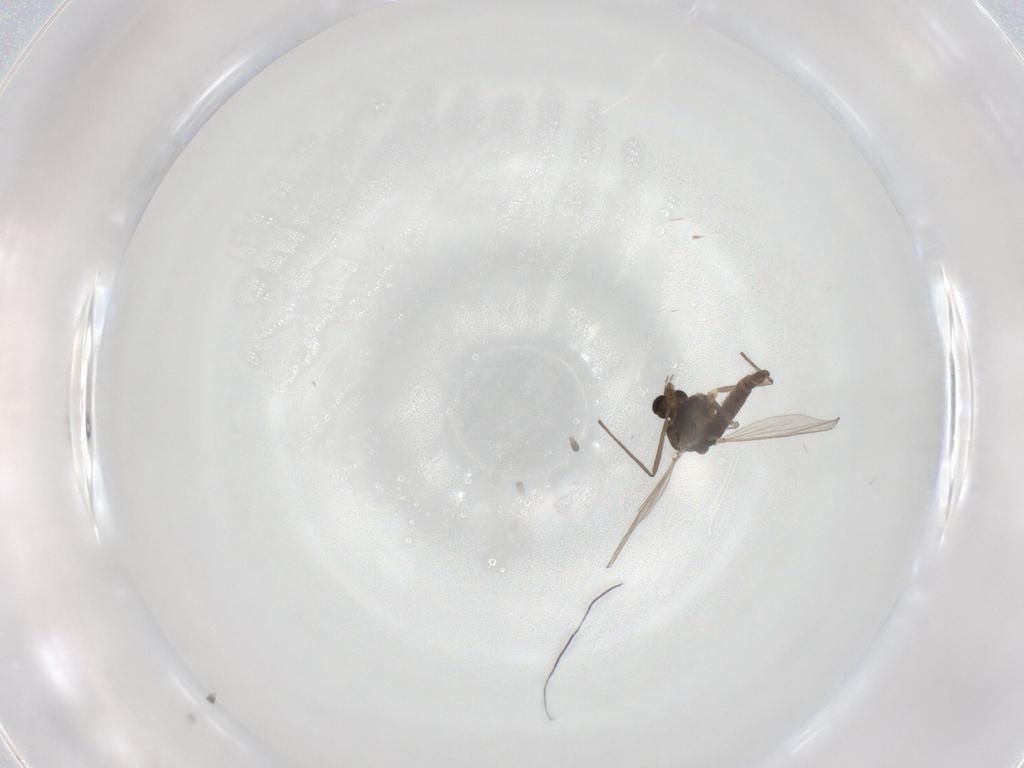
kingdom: Animalia
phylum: Arthropoda
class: Insecta
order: Diptera
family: Chironomidae
